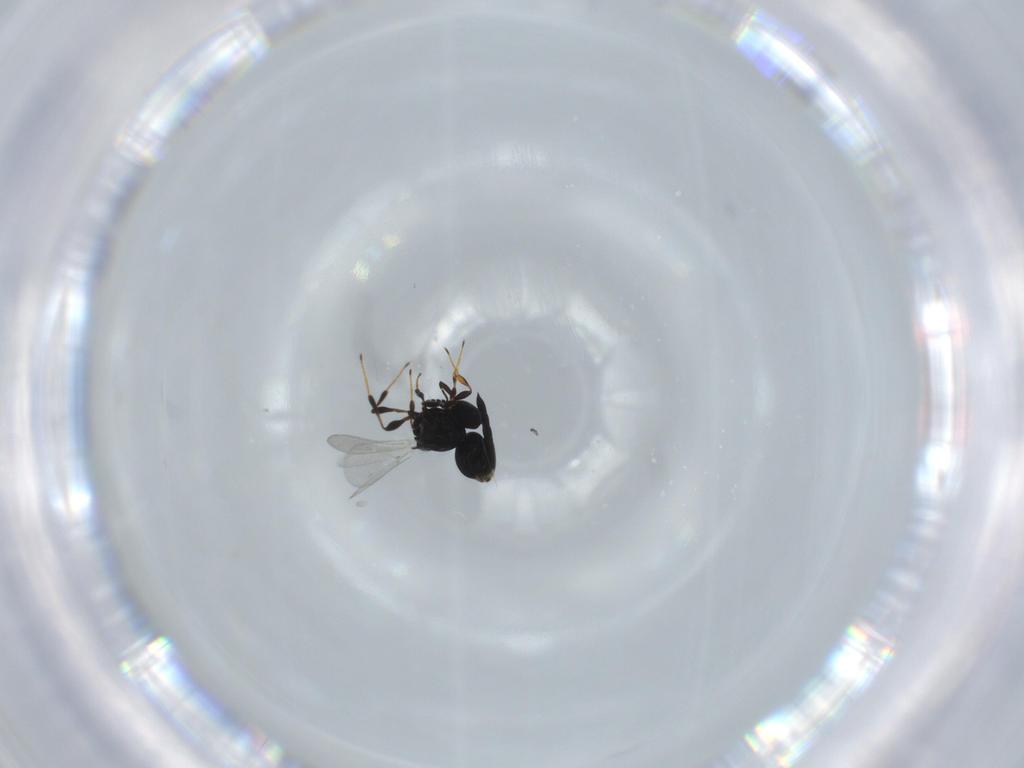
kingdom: Animalia
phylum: Arthropoda
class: Insecta
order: Hymenoptera
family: Platygastridae
